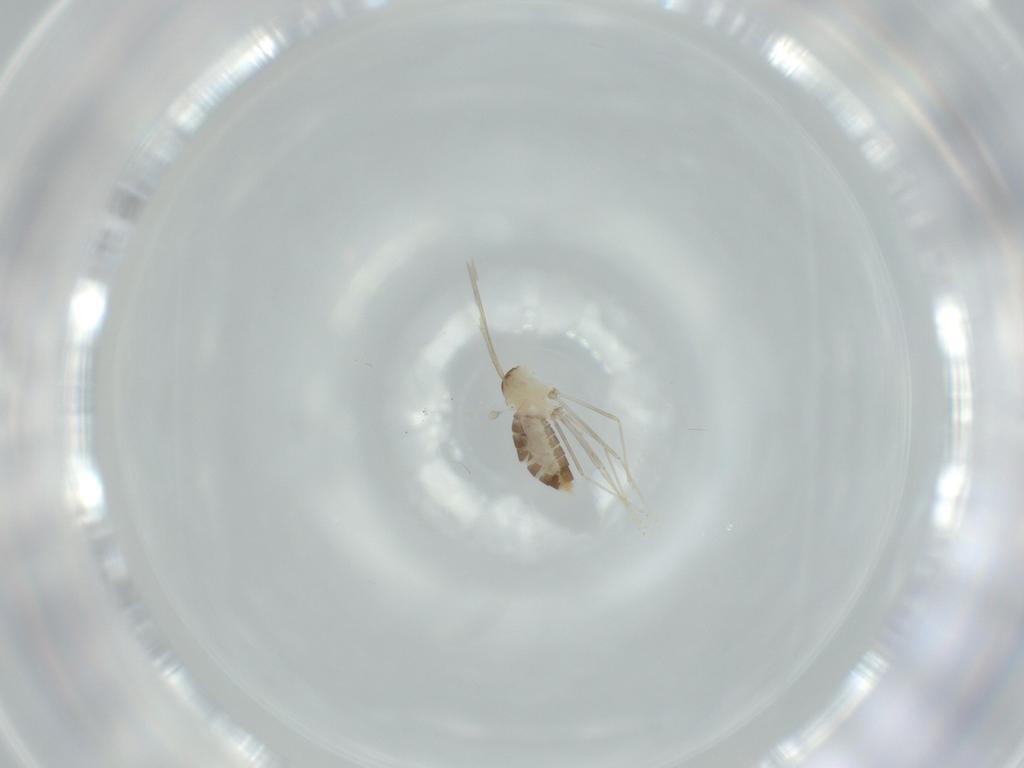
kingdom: Animalia
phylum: Arthropoda
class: Insecta
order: Diptera
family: Cecidomyiidae
